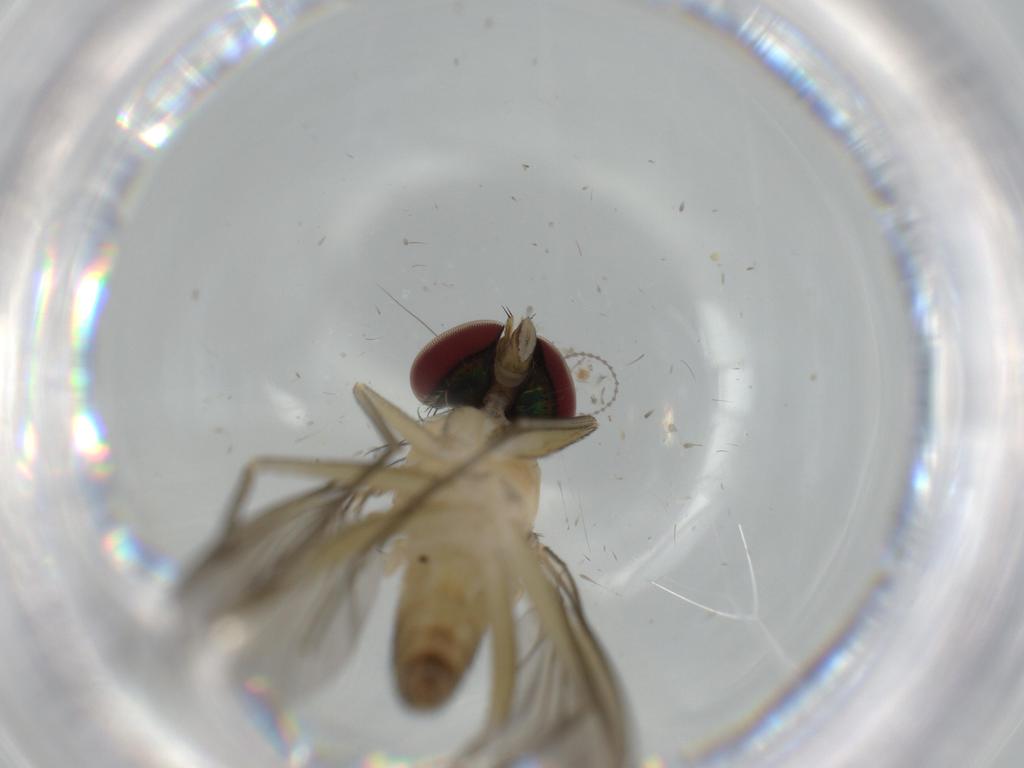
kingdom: Animalia
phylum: Arthropoda
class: Insecta
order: Diptera
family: Dolichopodidae
